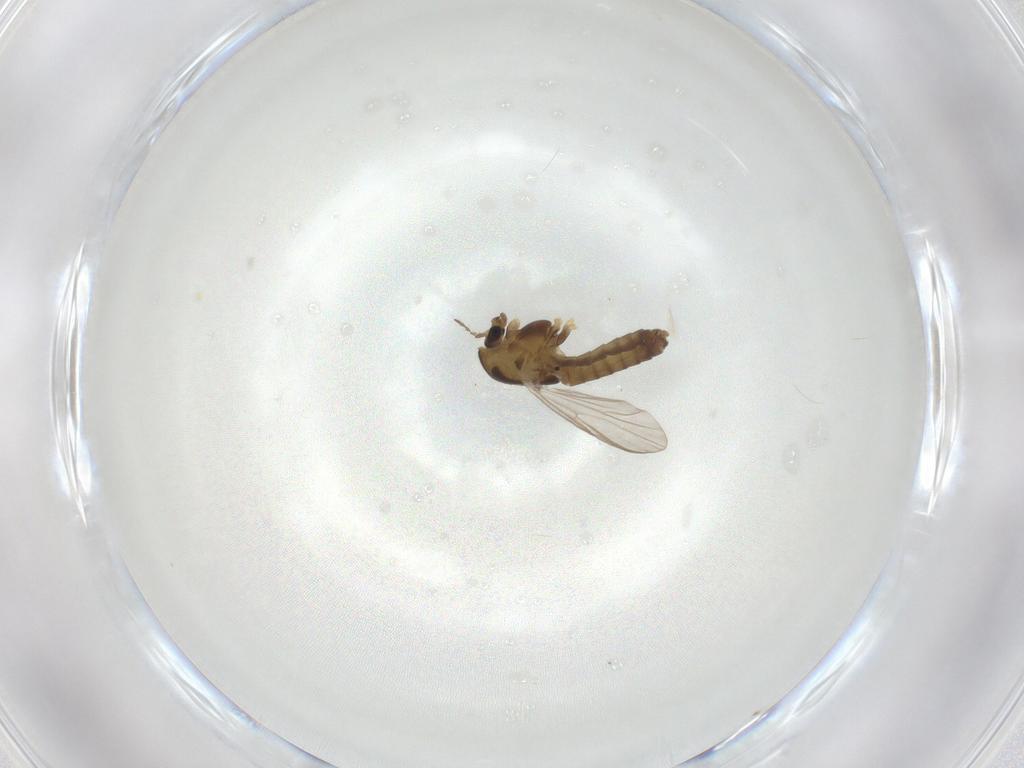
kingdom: Animalia
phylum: Arthropoda
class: Insecta
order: Diptera
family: Chironomidae
